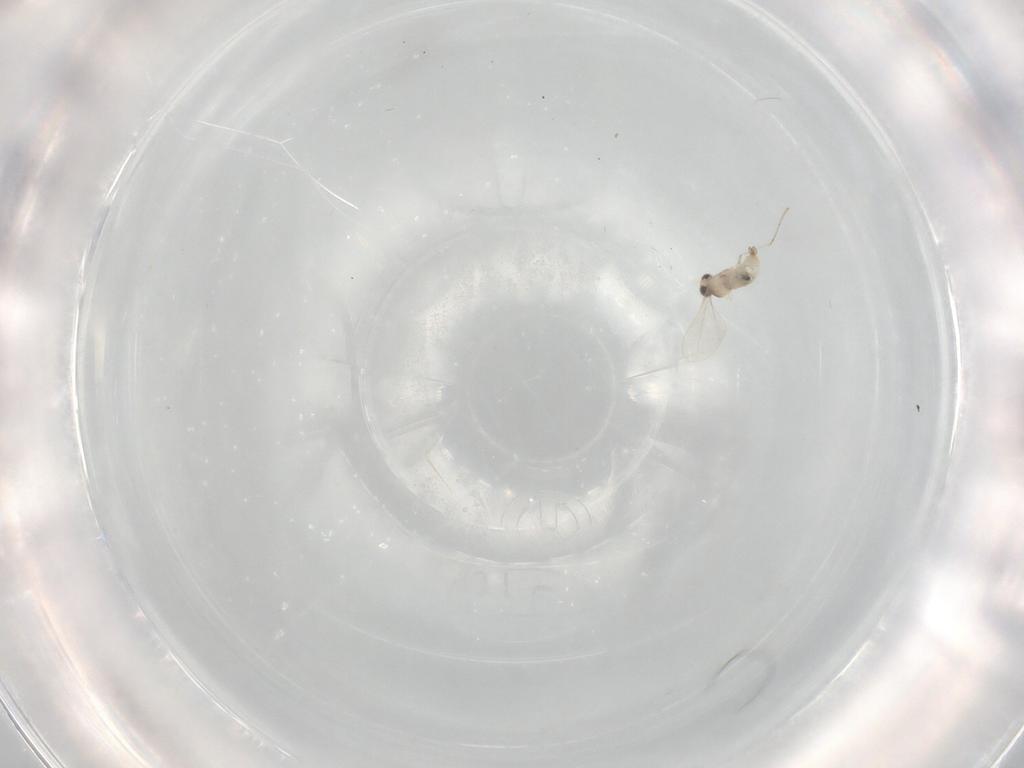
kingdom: Animalia
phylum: Arthropoda
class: Insecta
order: Diptera
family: Cecidomyiidae
